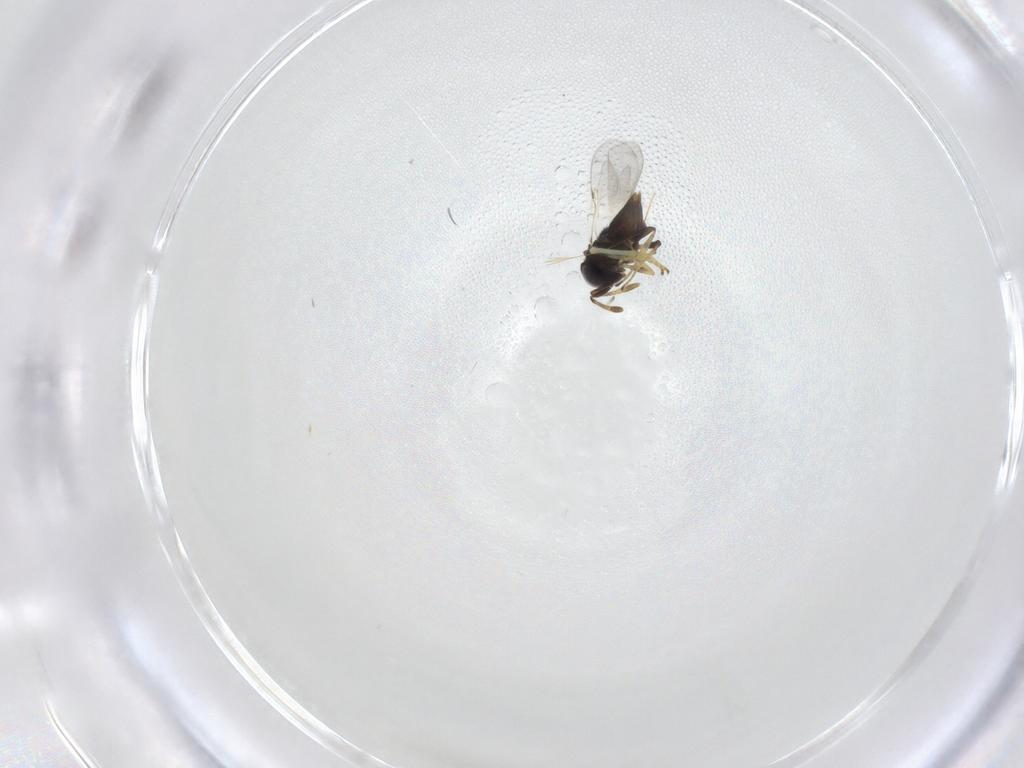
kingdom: Animalia
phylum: Arthropoda
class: Insecta
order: Hymenoptera
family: Encyrtidae
